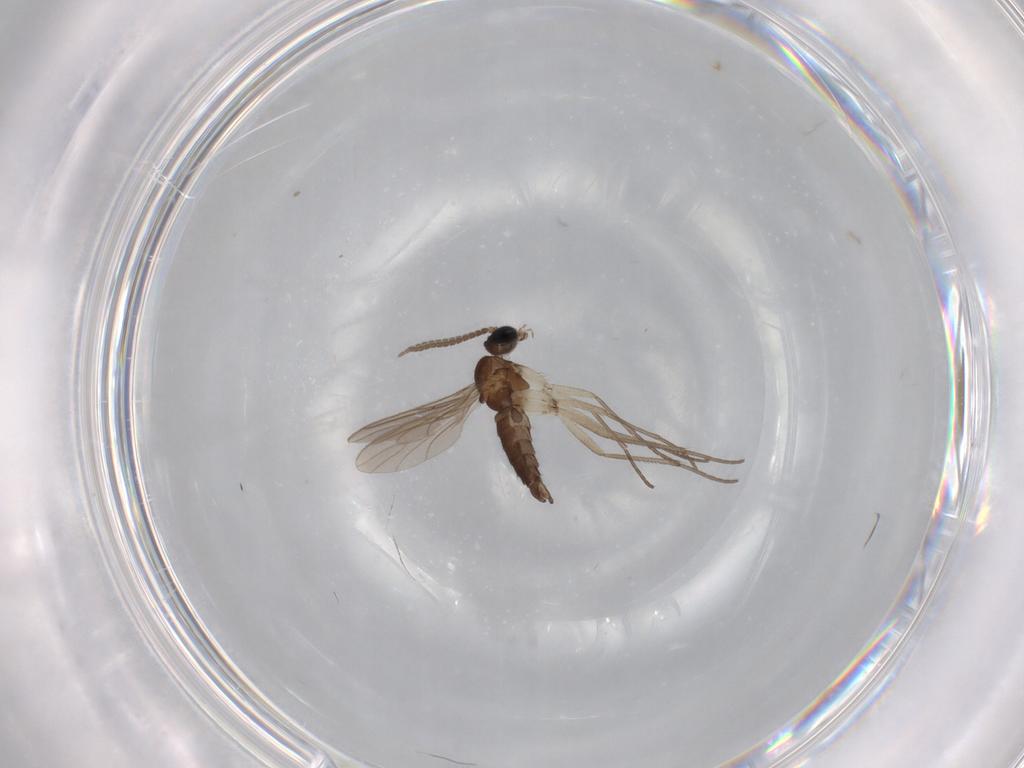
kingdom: Animalia
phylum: Arthropoda
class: Insecta
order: Diptera
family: Sciaridae
